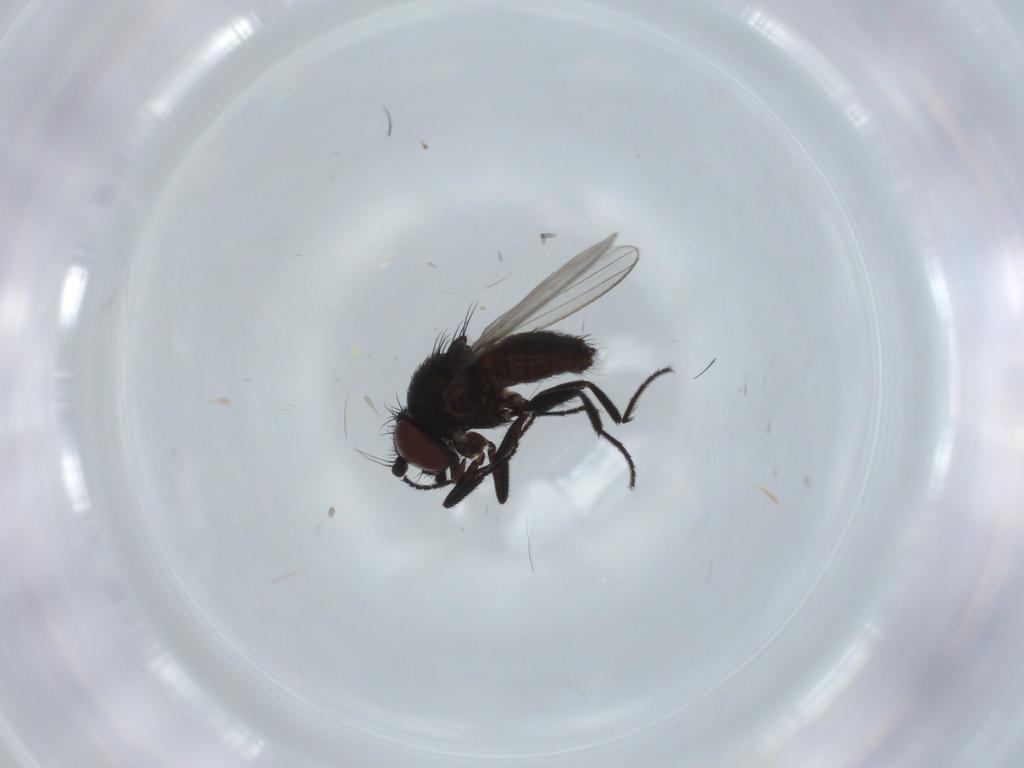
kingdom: Animalia
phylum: Arthropoda
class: Insecta
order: Diptera
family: Milichiidae
